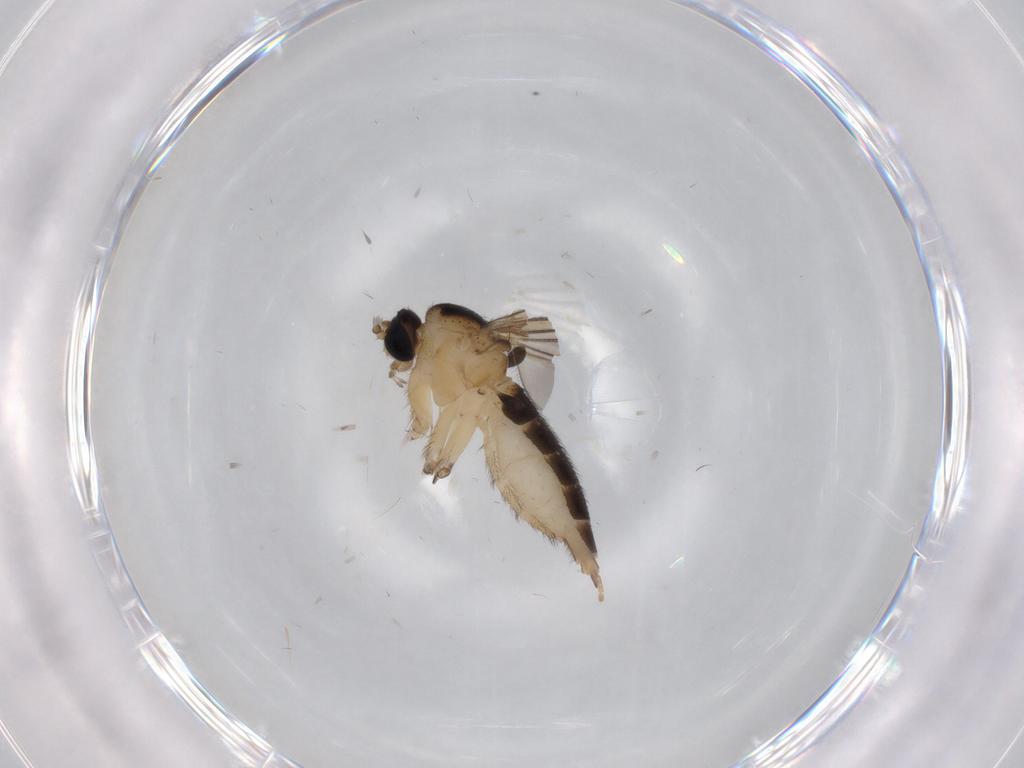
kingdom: Animalia
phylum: Arthropoda
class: Insecta
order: Diptera
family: Sciaridae
